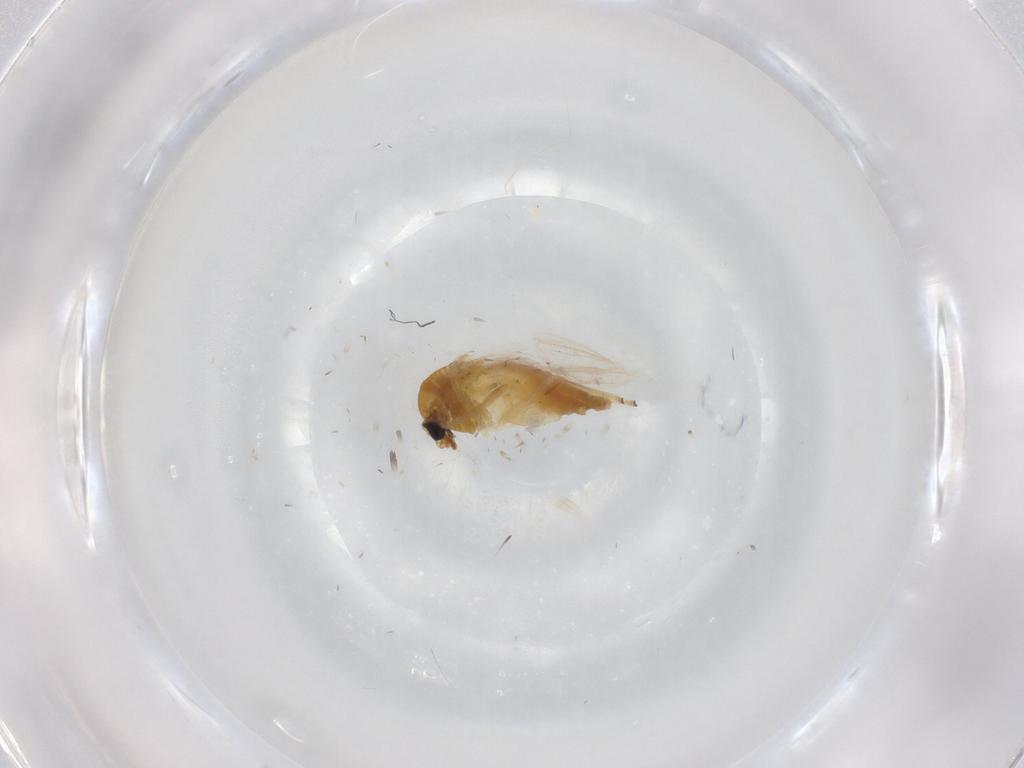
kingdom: Animalia
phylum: Arthropoda
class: Insecta
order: Diptera
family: Chironomidae
